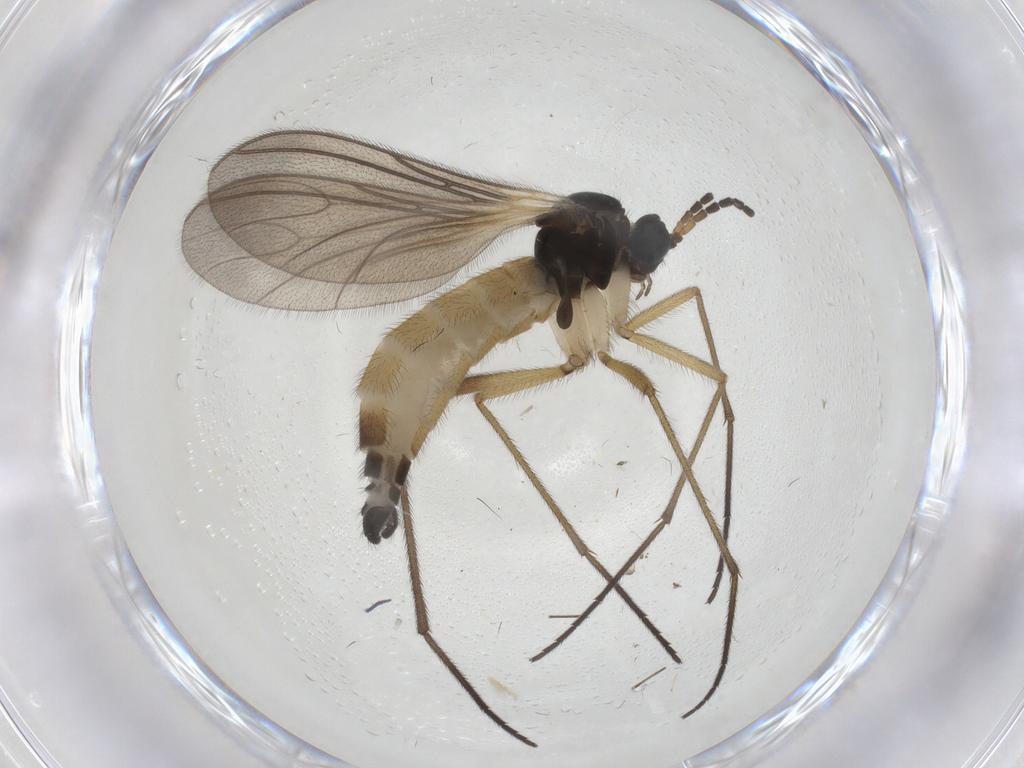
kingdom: Animalia
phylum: Arthropoda
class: Insecta
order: Diptera
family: Sciaridae
